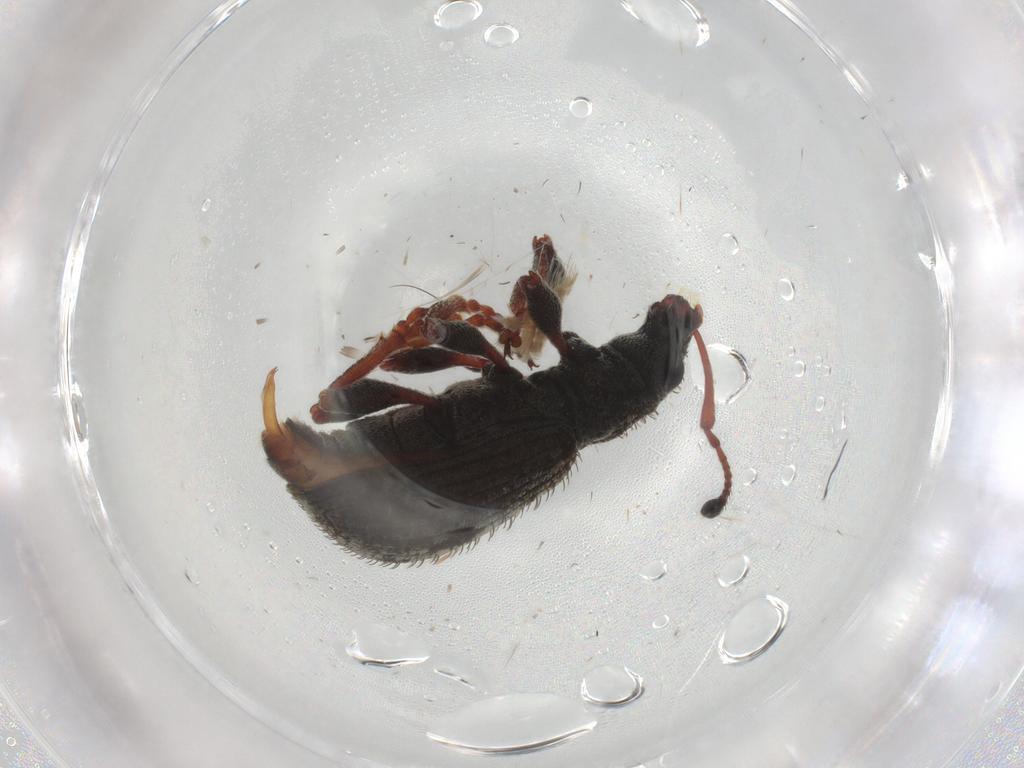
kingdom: Animalia
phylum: Arthropoda
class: Insecta
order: Coleoptera
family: Curculionidae
